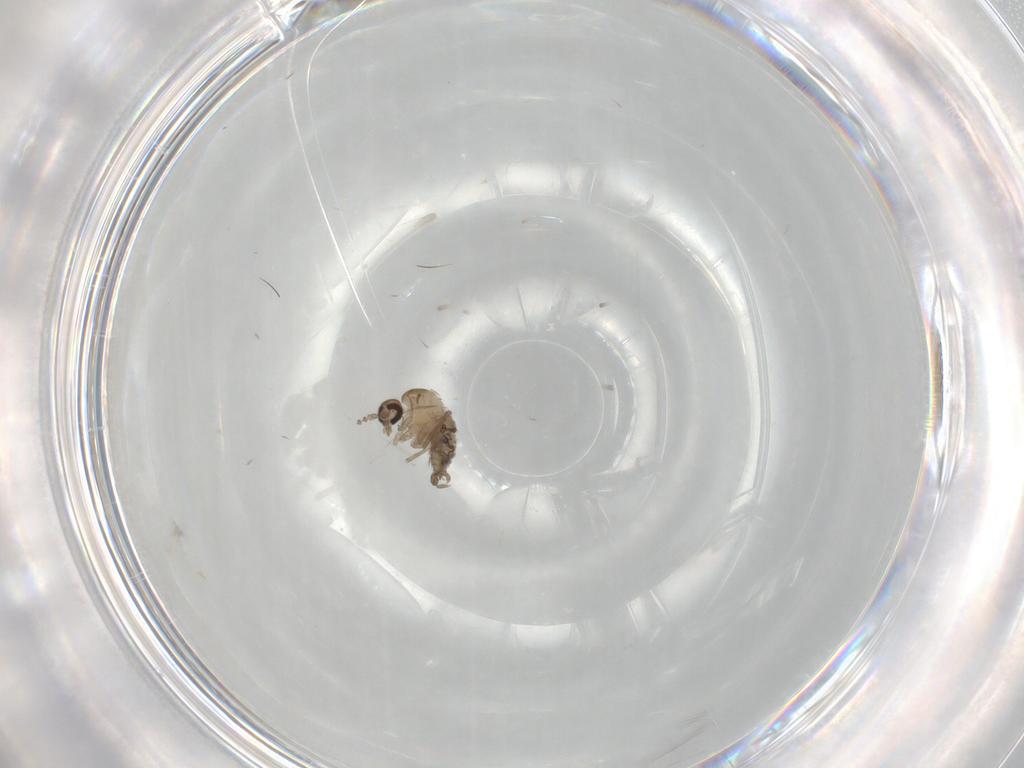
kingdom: Animalia
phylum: Arthropoda
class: Insecta
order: Diptera
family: Psychodidae
